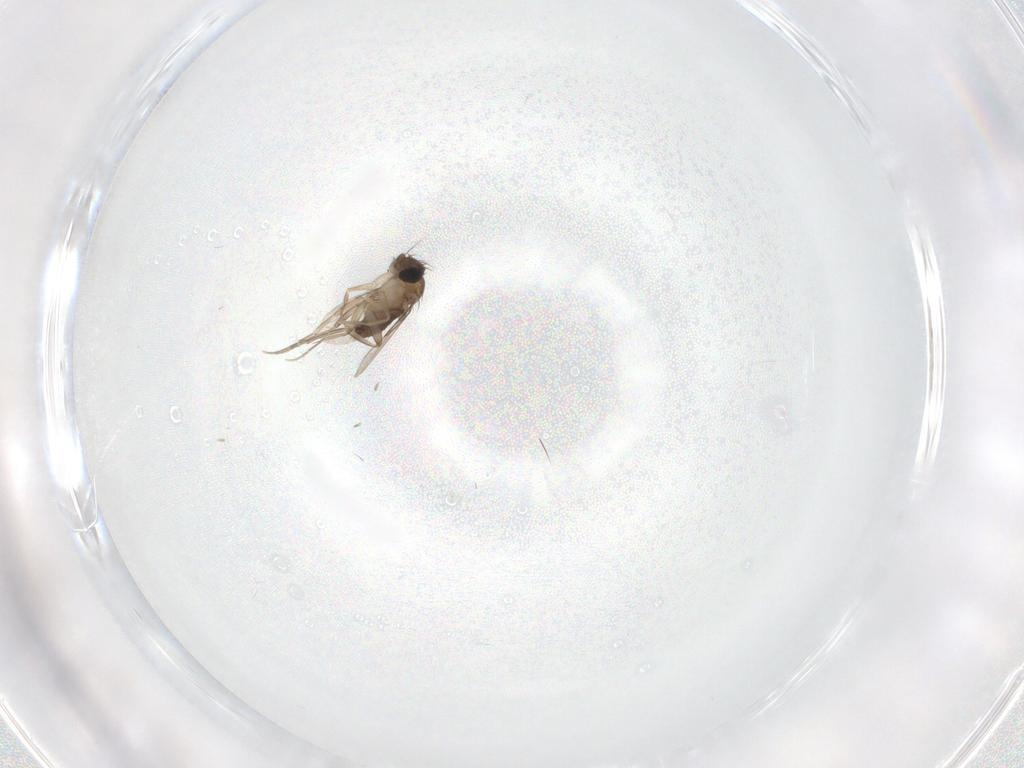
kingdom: Animalia
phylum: Arthropoda
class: Insecta
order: Diptera
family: Phoridae
